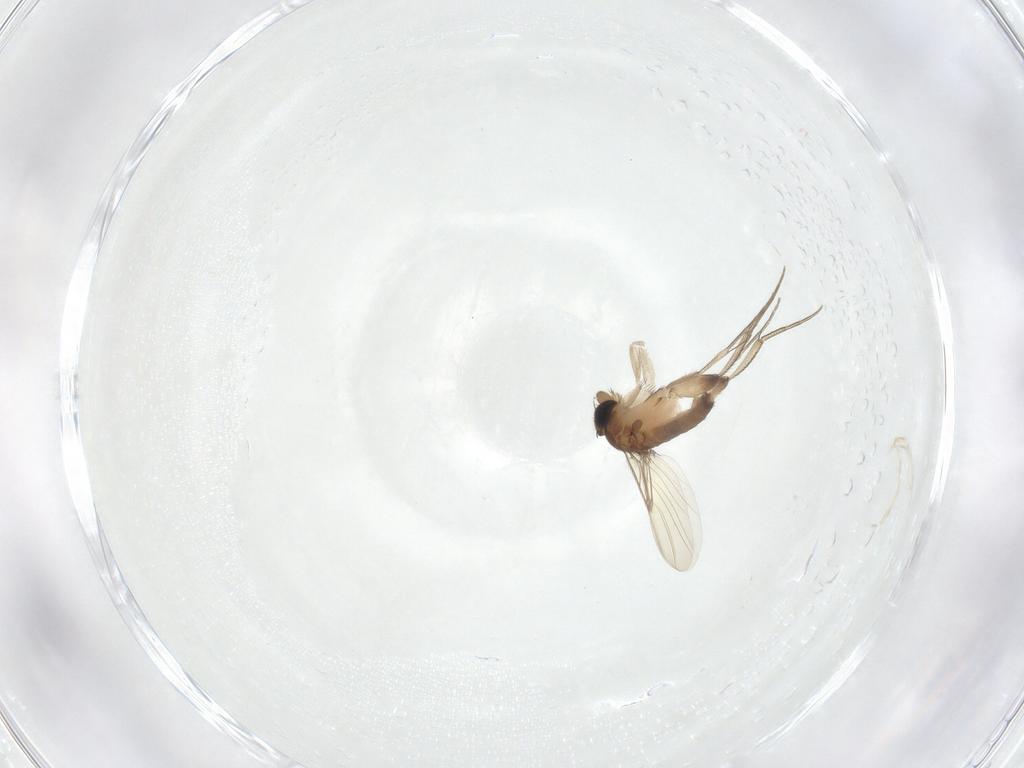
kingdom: Animalia
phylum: Arthropoda
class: Insecta
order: Diptera
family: Phoridae
